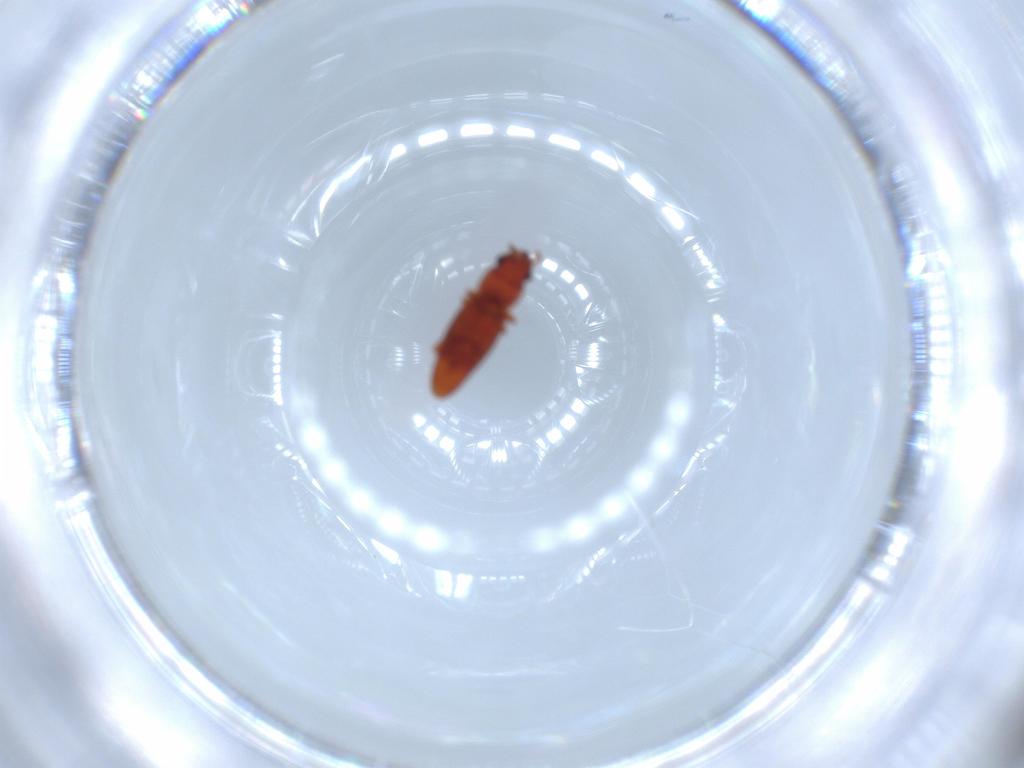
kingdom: Animalia
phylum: Arthropoda
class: Insecta
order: Coleoptera
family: Smicripidae
